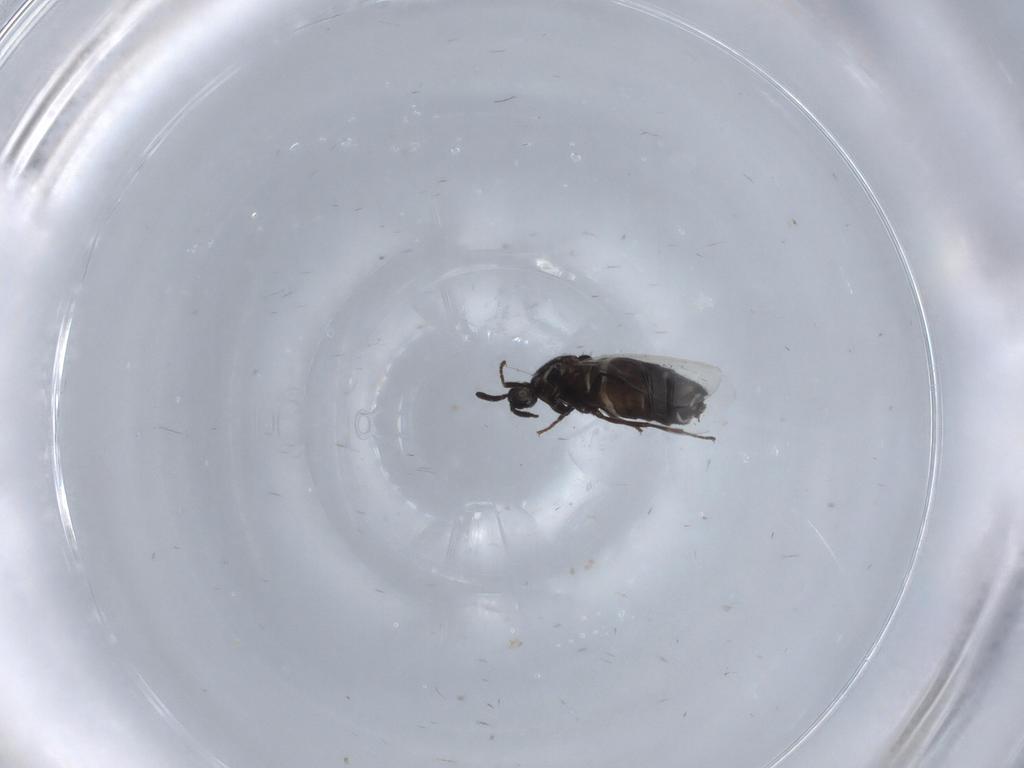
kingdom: Animalia
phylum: Arthropoda
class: Insecta
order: Diptera
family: Scatopsidae
